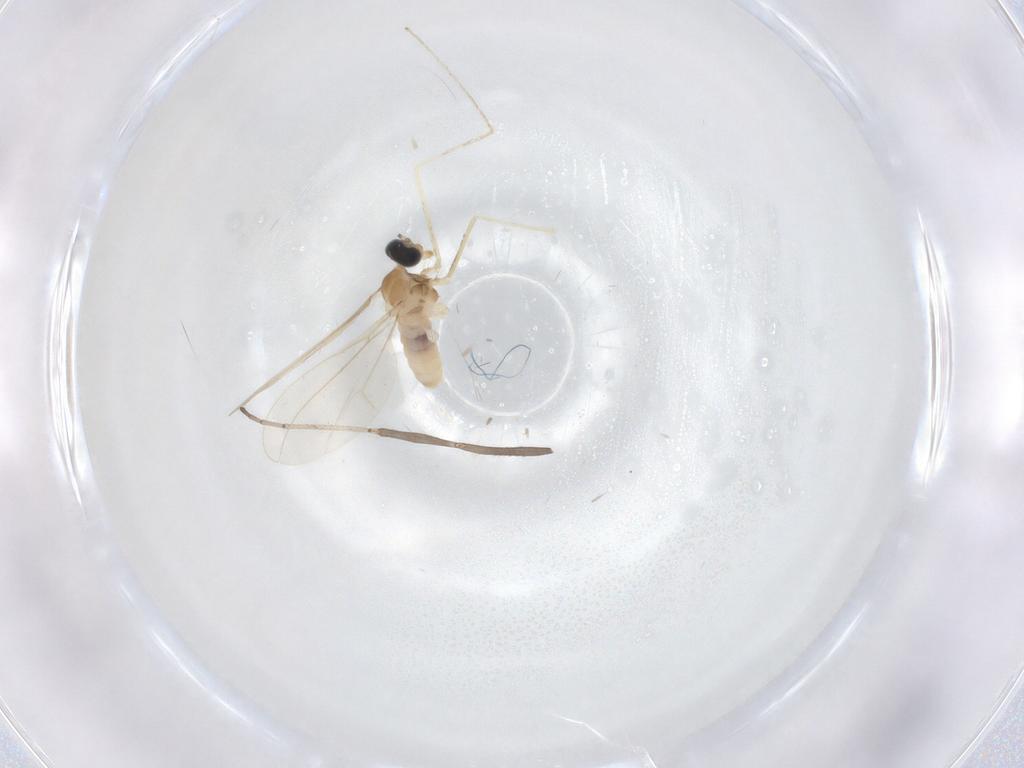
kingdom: Animalia
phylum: Arthropoda
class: Insecta
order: Diptera
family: Cecidomyiidae
